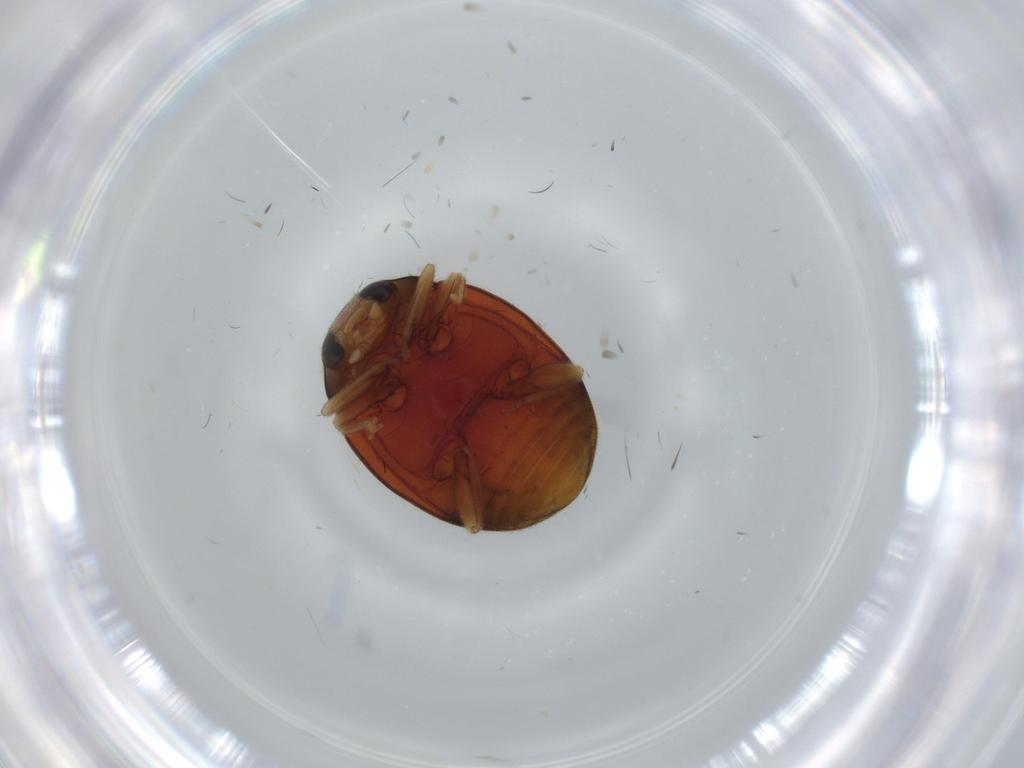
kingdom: Animalia
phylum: Arthropoda
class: Insecta
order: Coleoptera
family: Coccinellidae
